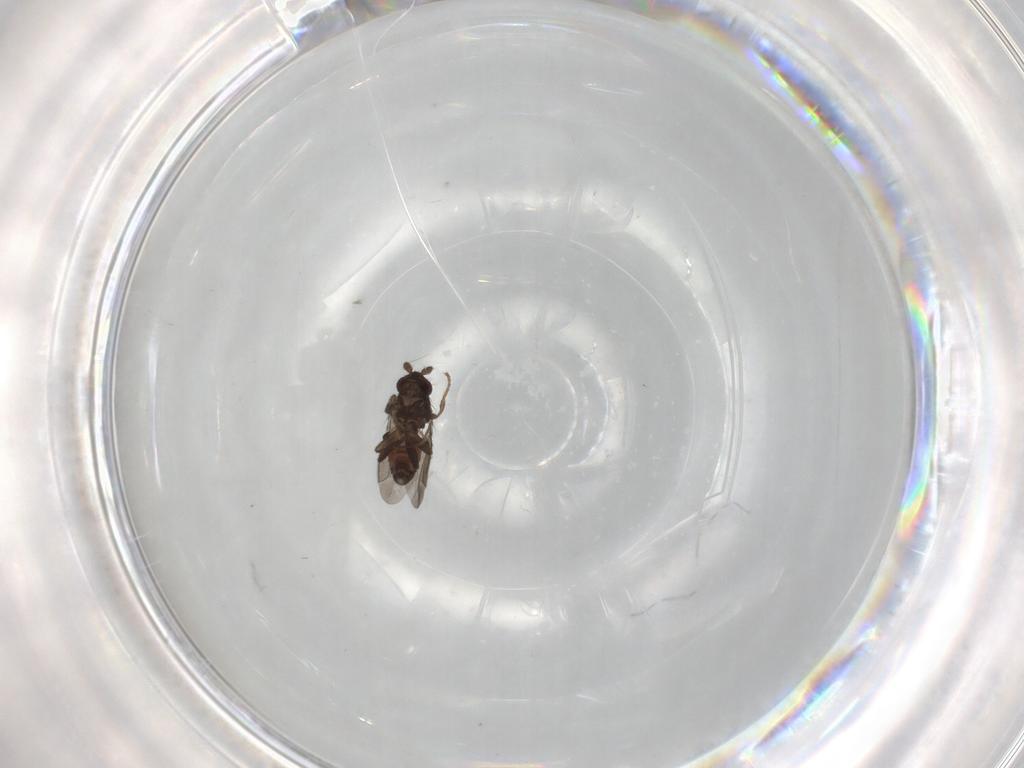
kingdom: Animalia
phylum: Arthropoda
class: Insecta
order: Diptera
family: Sphaeroceridae
